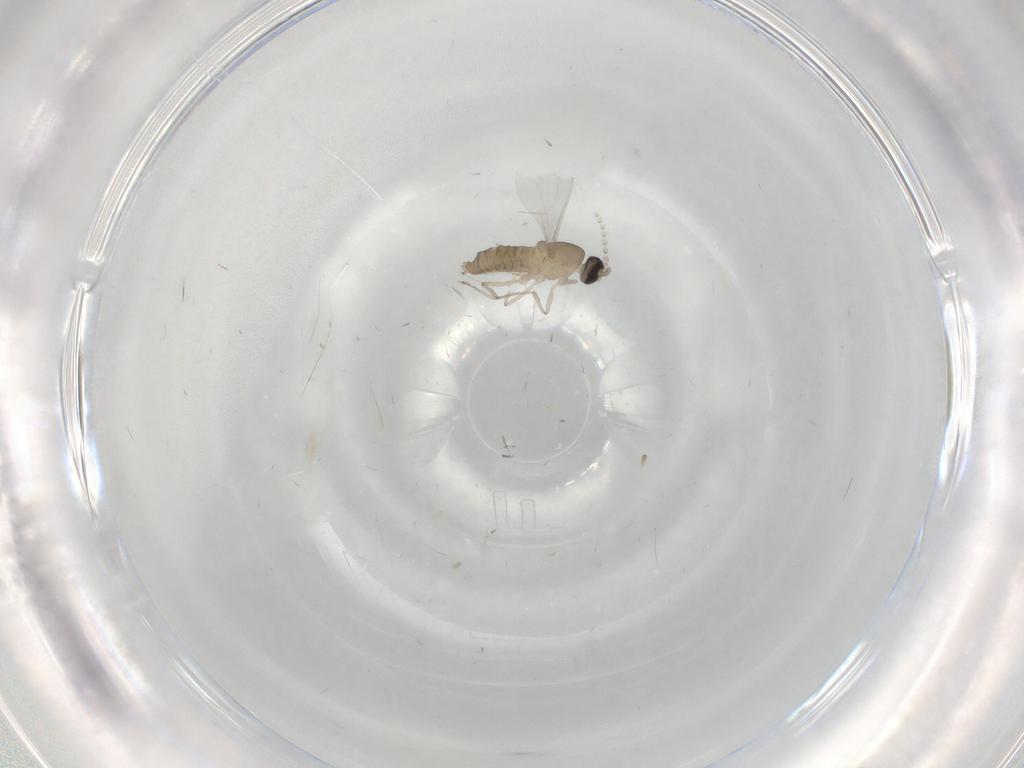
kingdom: Animalia
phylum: Arthropoda
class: Insecta
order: Diptera
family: Cecidomyiidae
